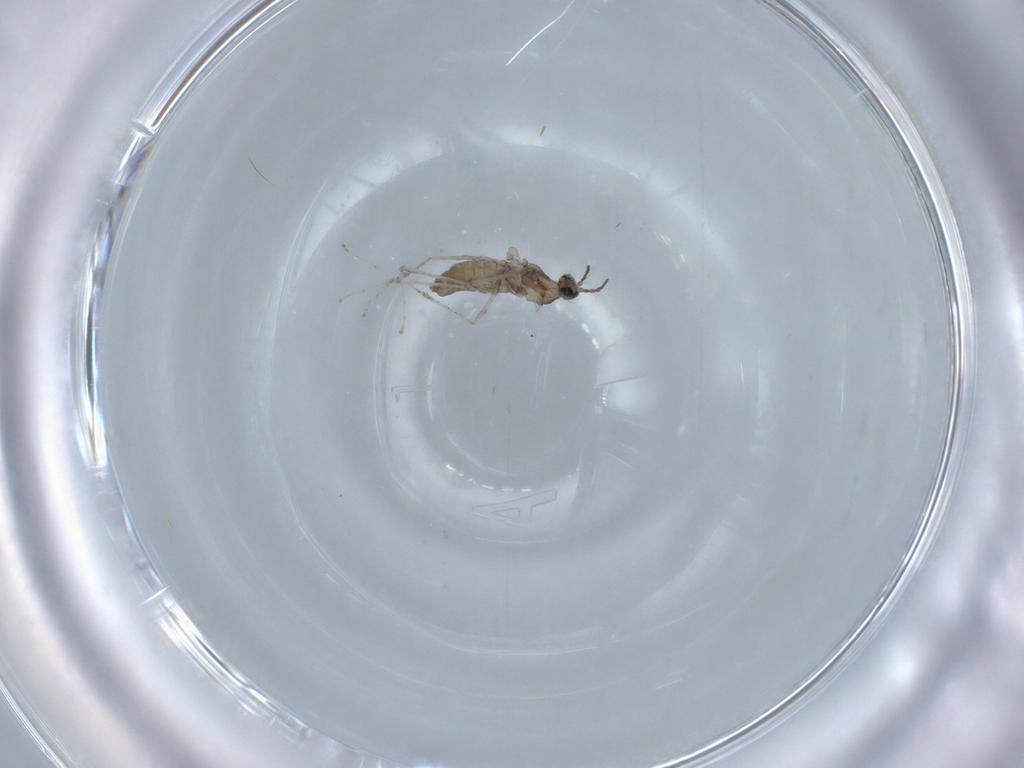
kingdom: Animalia
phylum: Arthropoda
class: Insecta
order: Diptera
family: Cecidomyiidae
